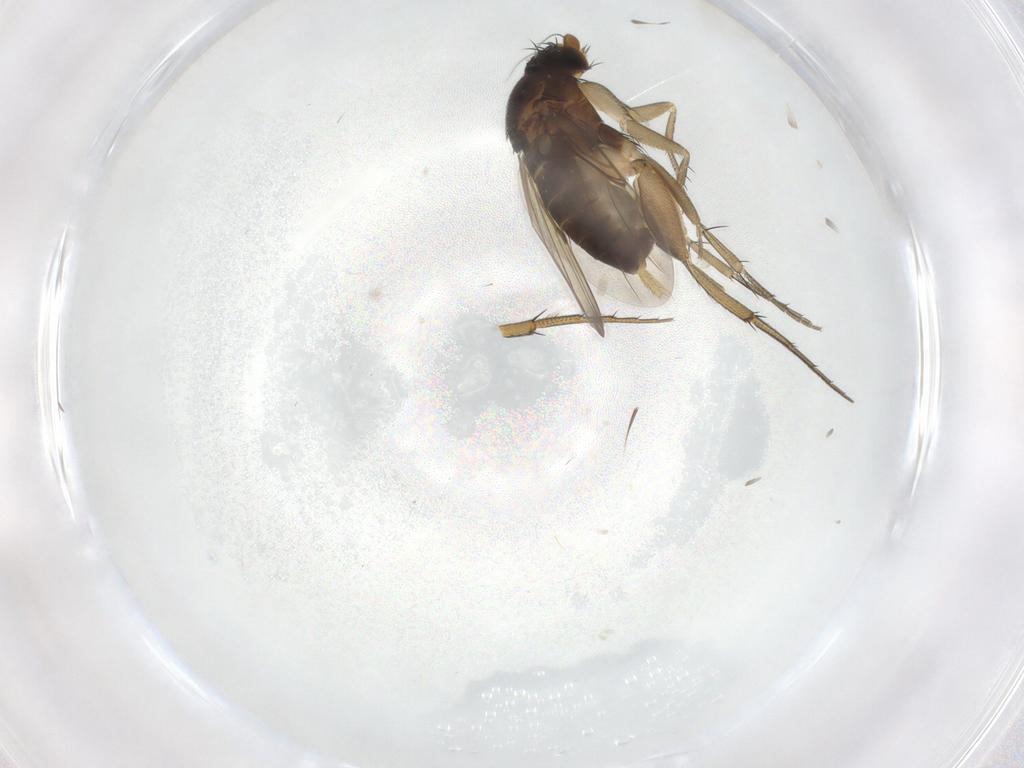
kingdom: Animalia
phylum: Arthropoda
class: Insecta
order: Diptera
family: Phoridae
